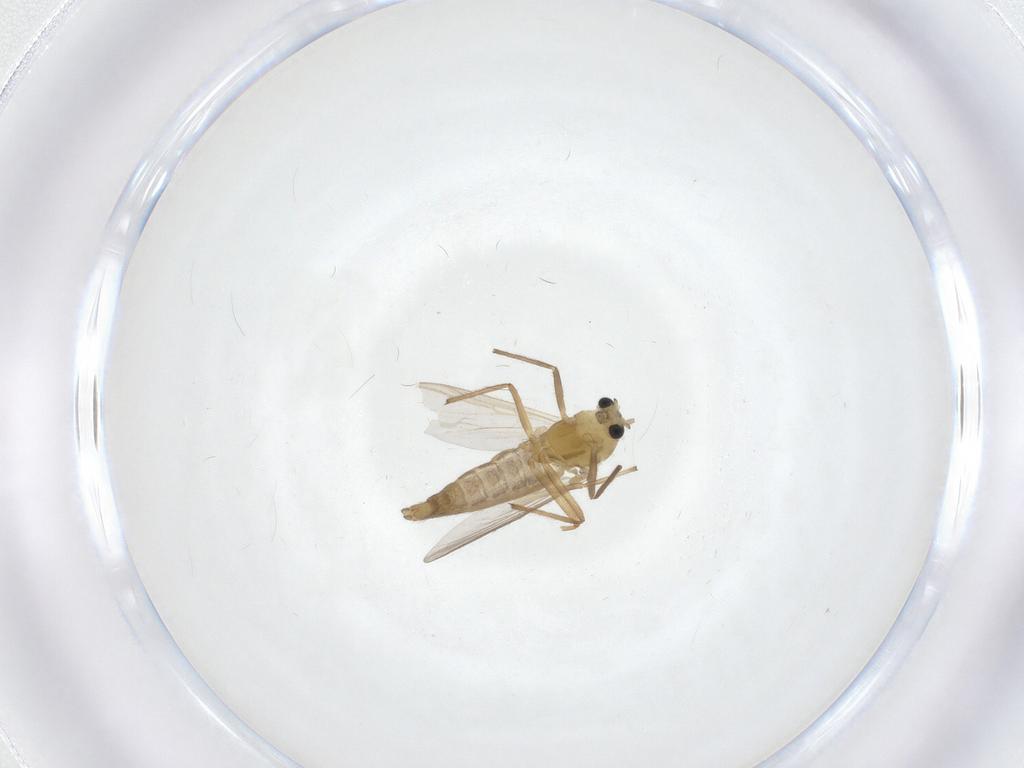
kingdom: Animalia
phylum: Arthropoda
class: Insecta
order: Diptera
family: Chironomidae
